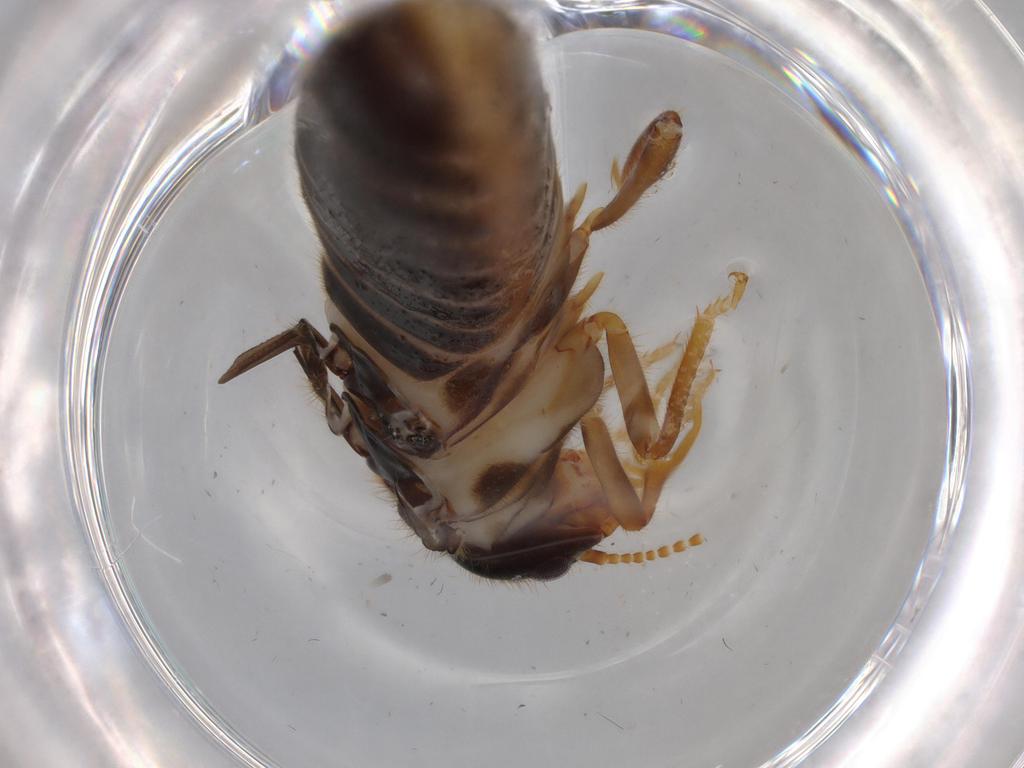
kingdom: Animalia
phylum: Arthropoda
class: Insecta
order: Blattodea
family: Termitidae
